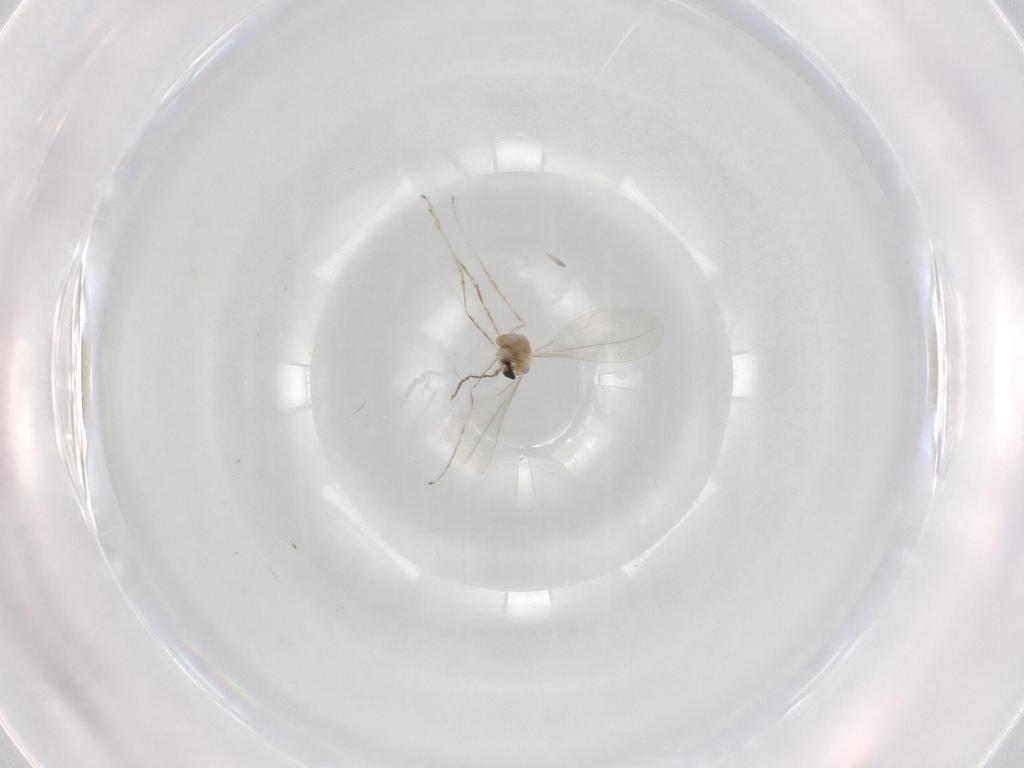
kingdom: Animalia
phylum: Arthropoda
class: Insecta
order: Diptera
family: Cecidomyiidae
